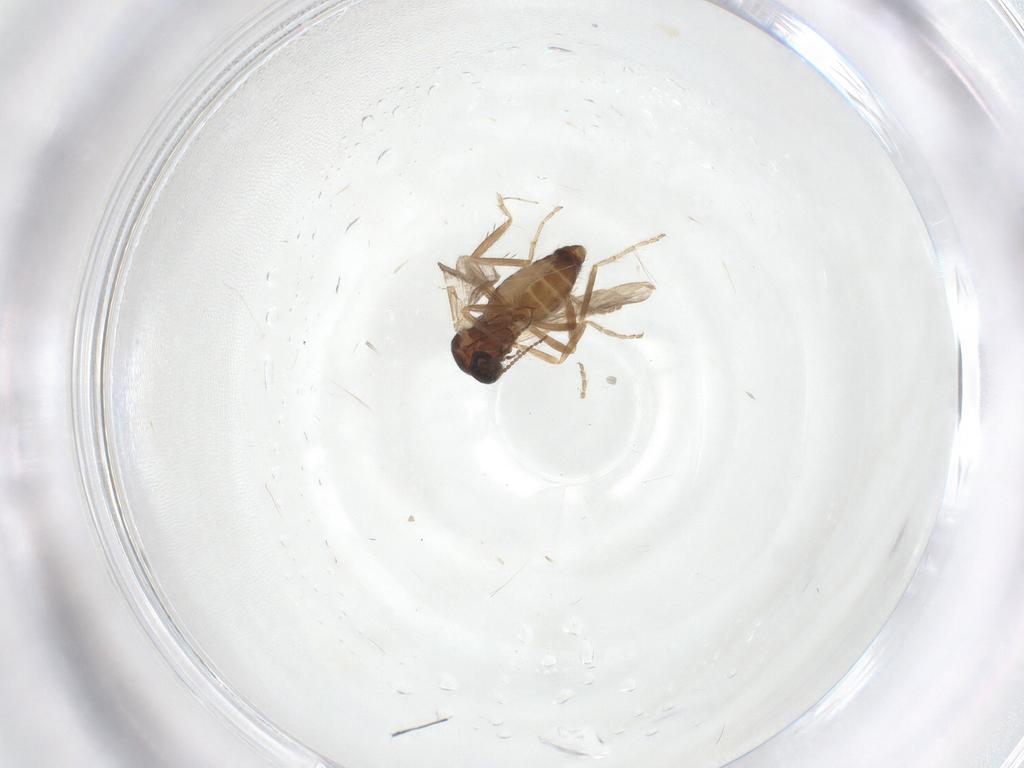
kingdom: Animalia
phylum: Arthropoda
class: Insecta
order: Diptera
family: Ceratopogonidae
